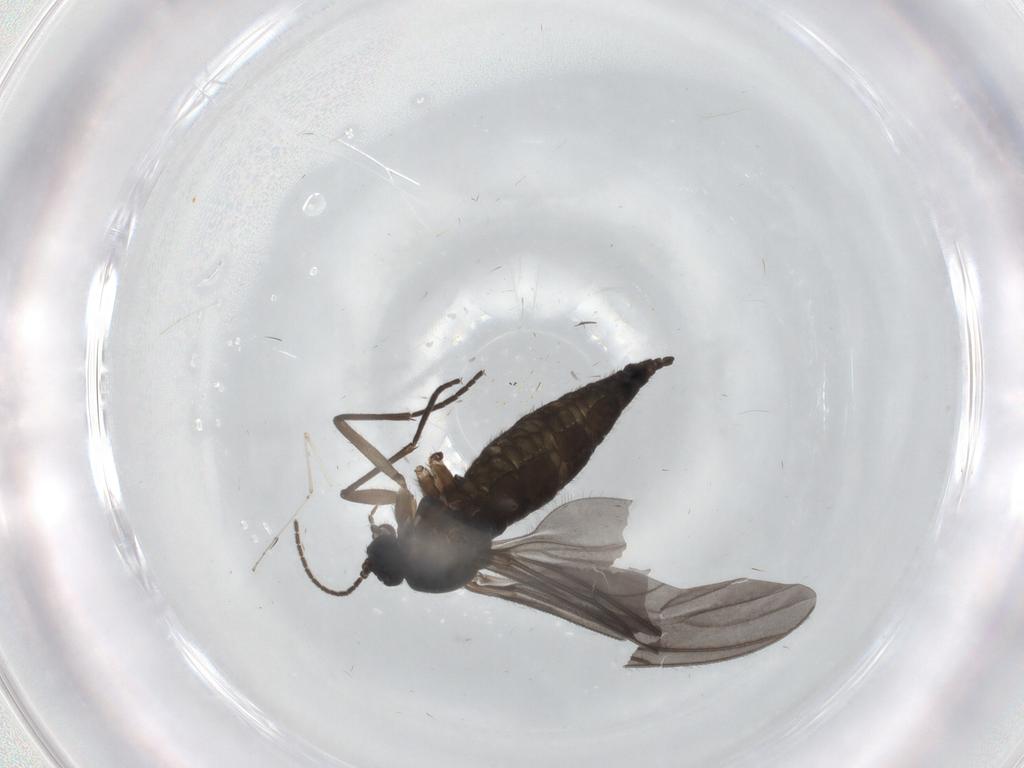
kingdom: Animalia
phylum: Arthropoda
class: Insecta
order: Diptera
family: Sciaridae
